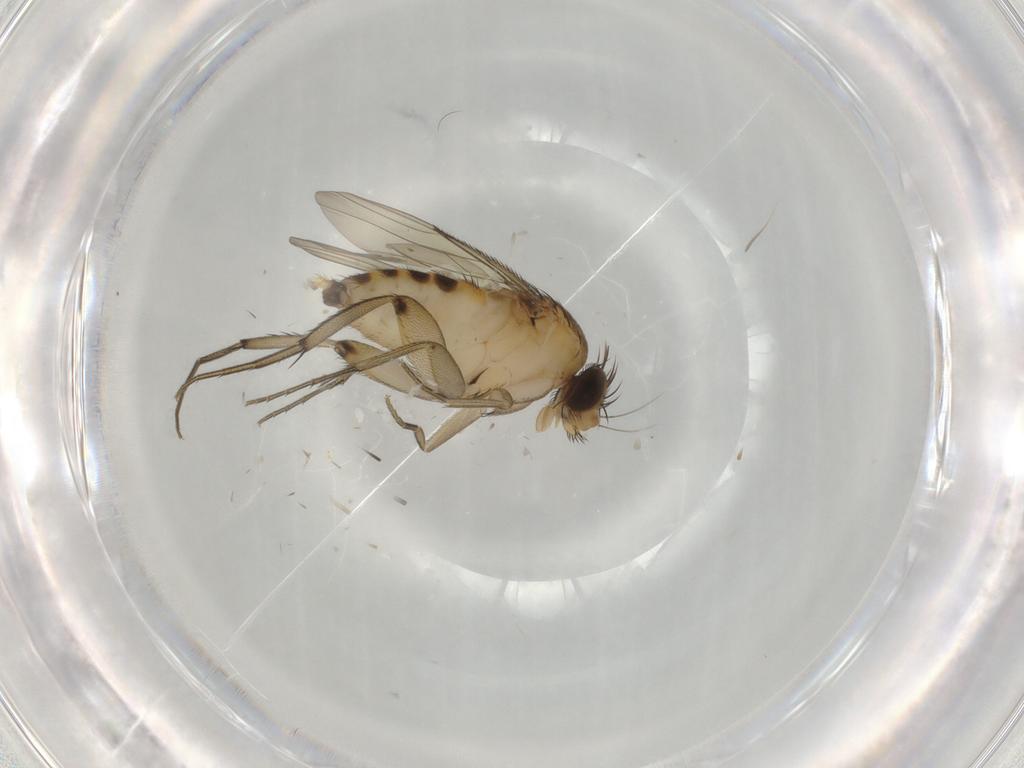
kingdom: Animalia
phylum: Arthropoda
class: Insecta
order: Diptera
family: Phoridae
